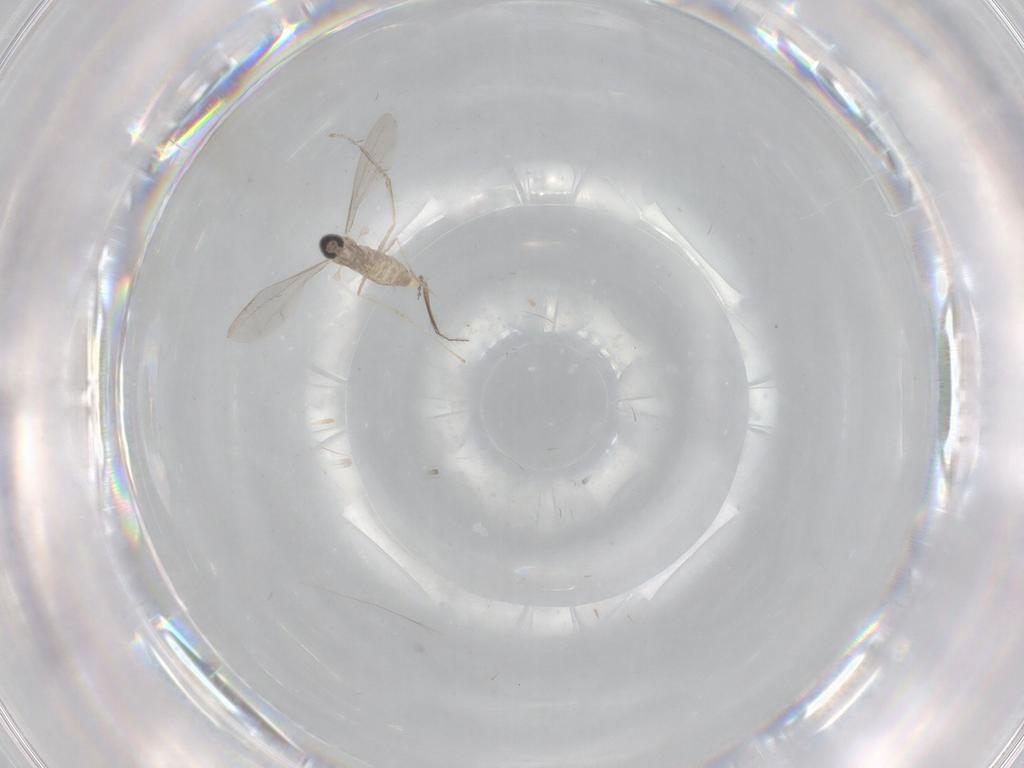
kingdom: Animalia
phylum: Arthropoda
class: Insecta
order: Diptera
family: Cecidomyiidae
